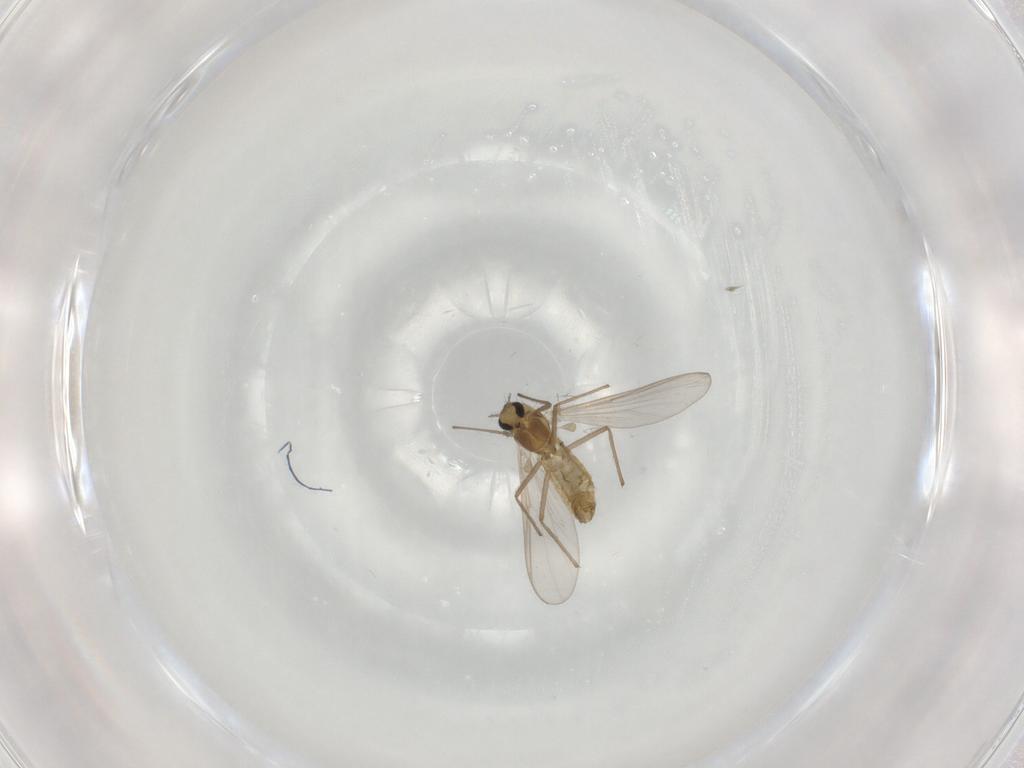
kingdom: Animalia
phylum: Arthropoda
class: Insecta
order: Diptera
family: Chironomidae
